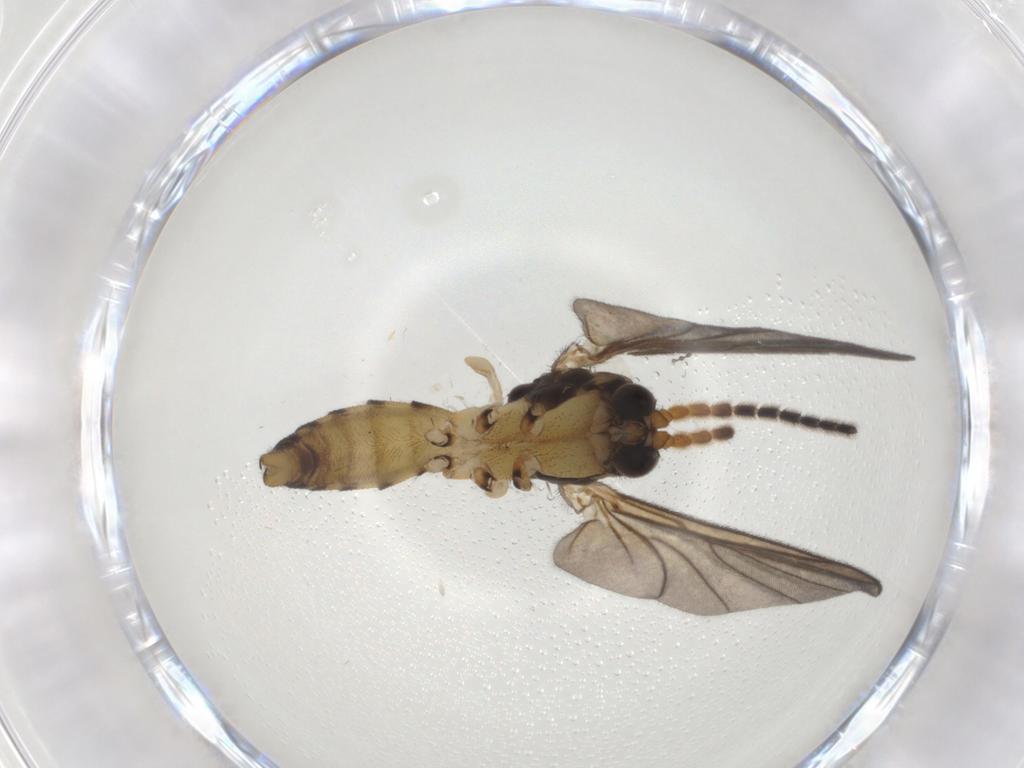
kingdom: Animalia
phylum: Arthropoda
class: Insecta
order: Diptera
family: Sphaeroceridae
